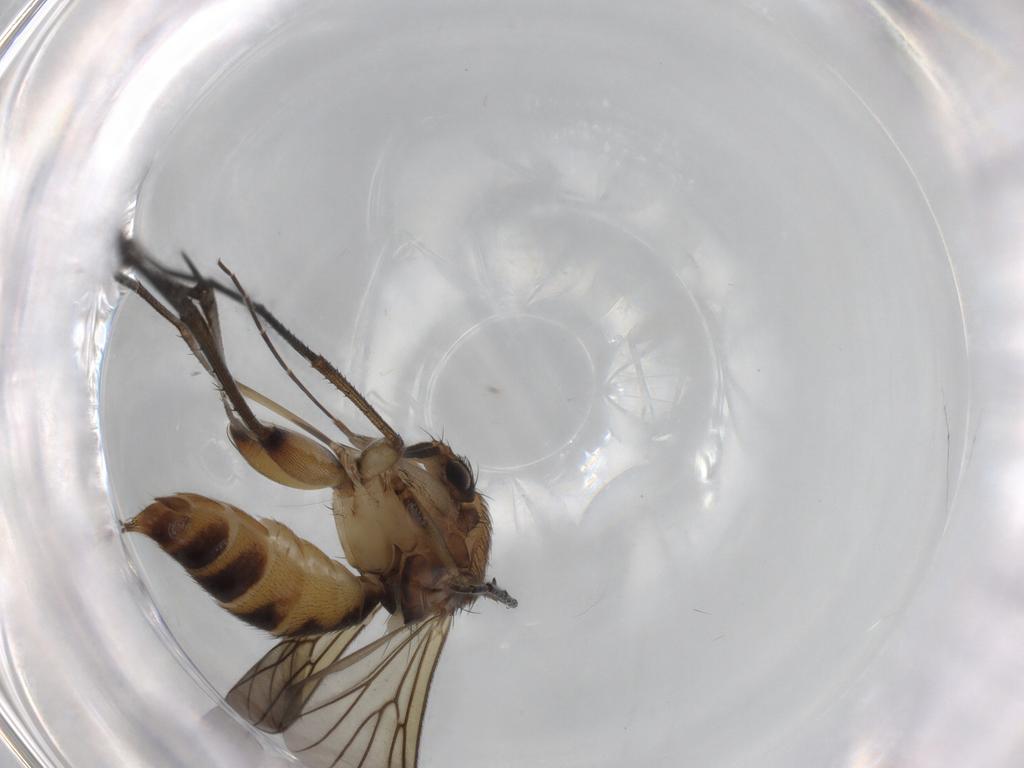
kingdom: Animalia
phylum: Arthropoda
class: Insecta
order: Diptera
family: Mycetophilidae
